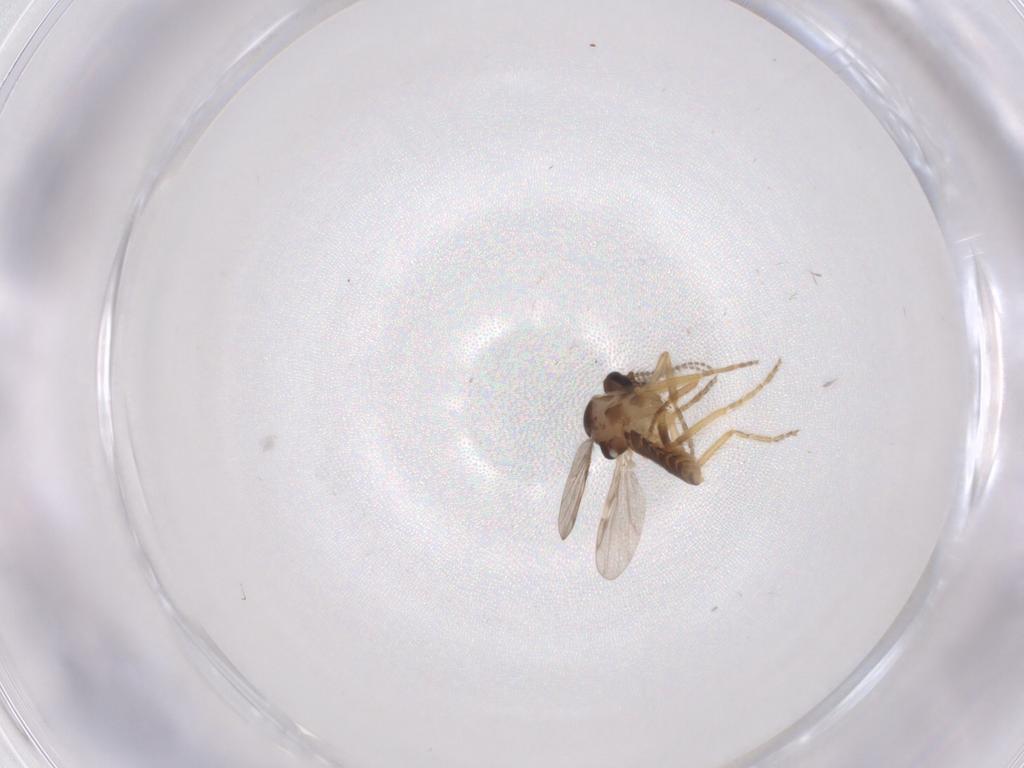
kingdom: Animalia
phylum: Arthropoda
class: Insecta
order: Diptera
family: Ceratopogonidae
